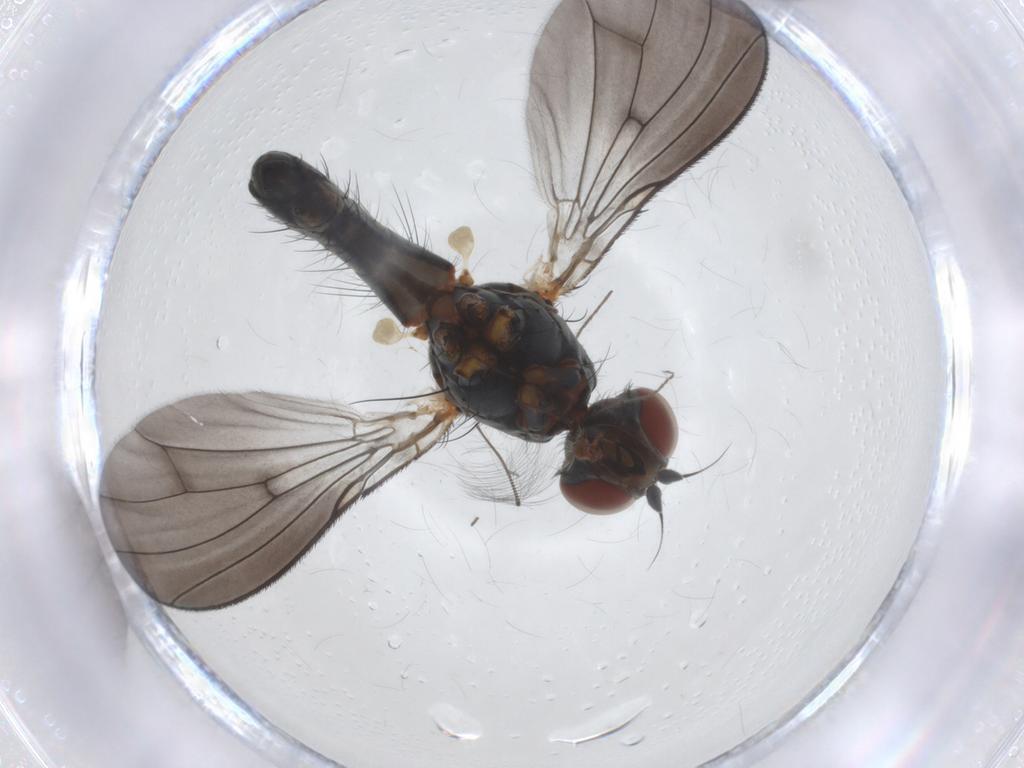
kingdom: Animalia
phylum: Arthropoda
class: Insecta
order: Diptera
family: Anthomyiidae
